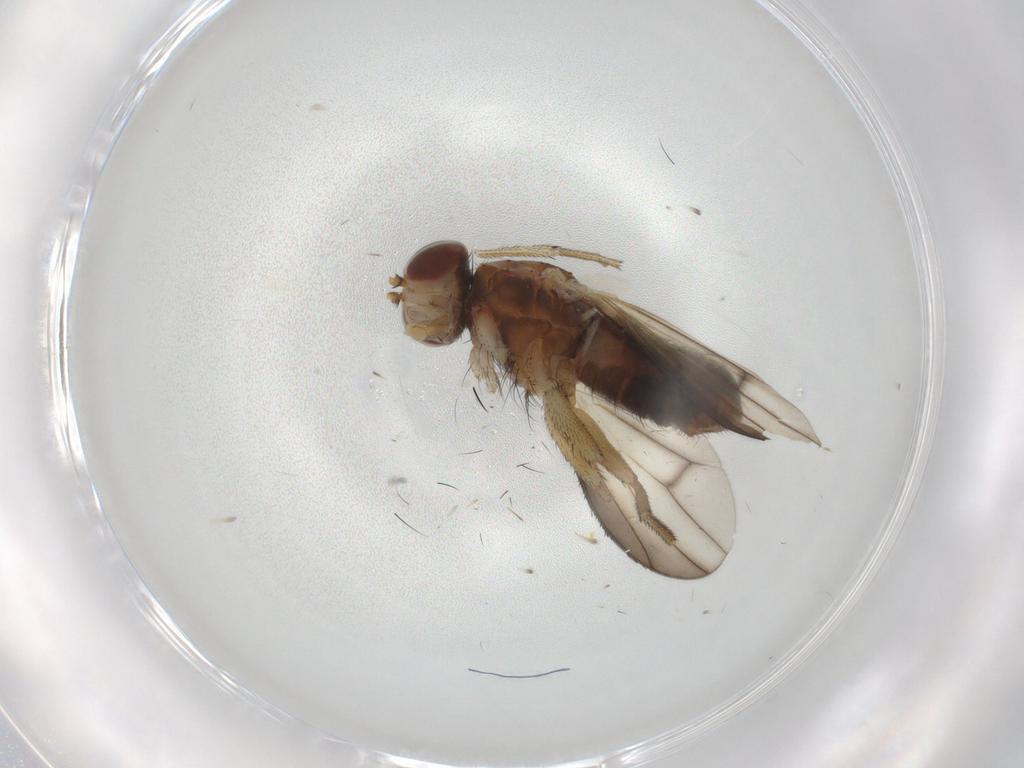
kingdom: Animalia
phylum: Arthropoda
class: Insecta
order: Diptera
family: Heleomyzidae
